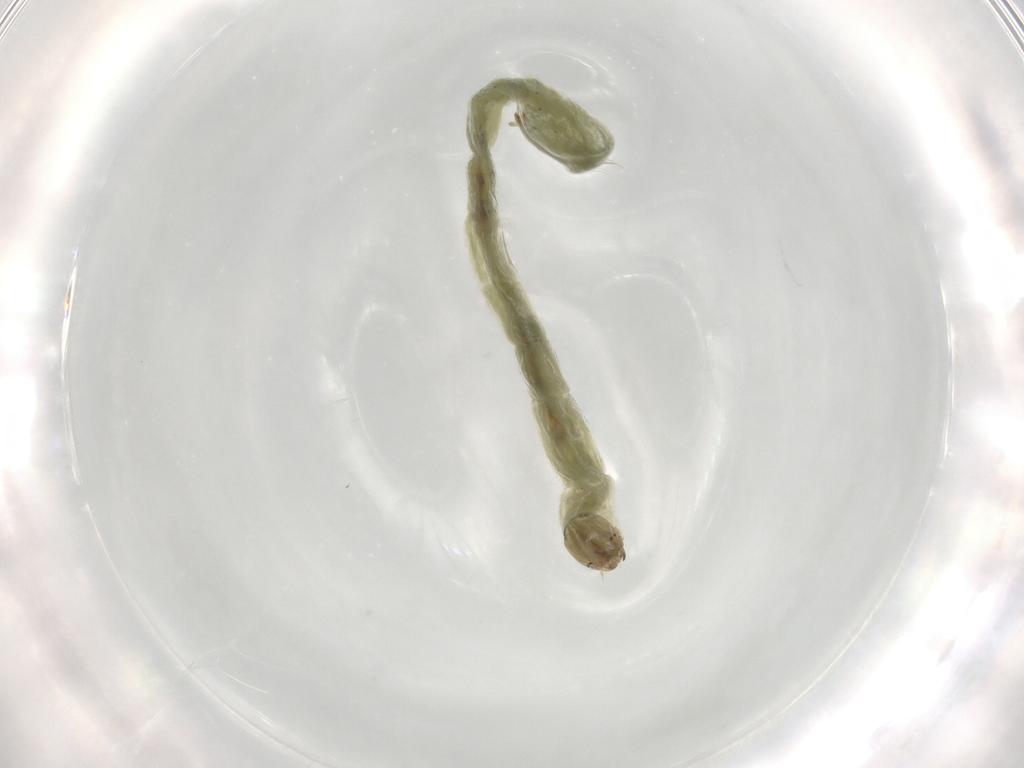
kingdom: Animalia
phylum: Arthropoda
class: Insecta
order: Diptera
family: Chironomidae
